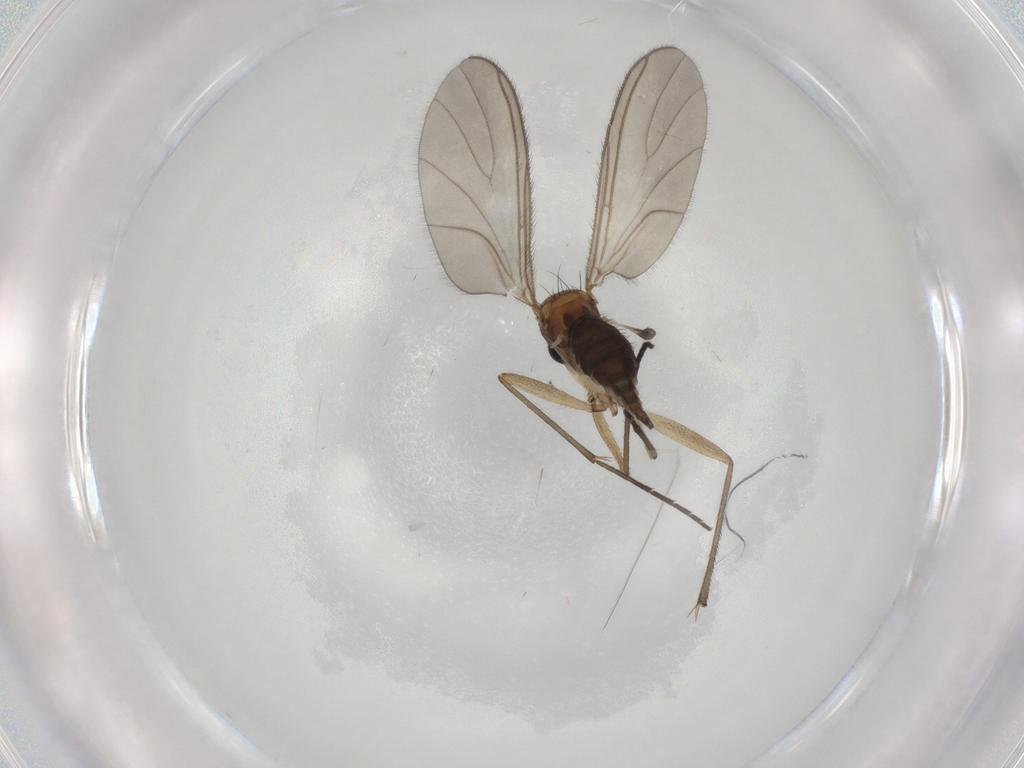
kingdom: Animalia
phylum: Arthropoda
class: Insecta
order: Diptera
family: Sciaridae
